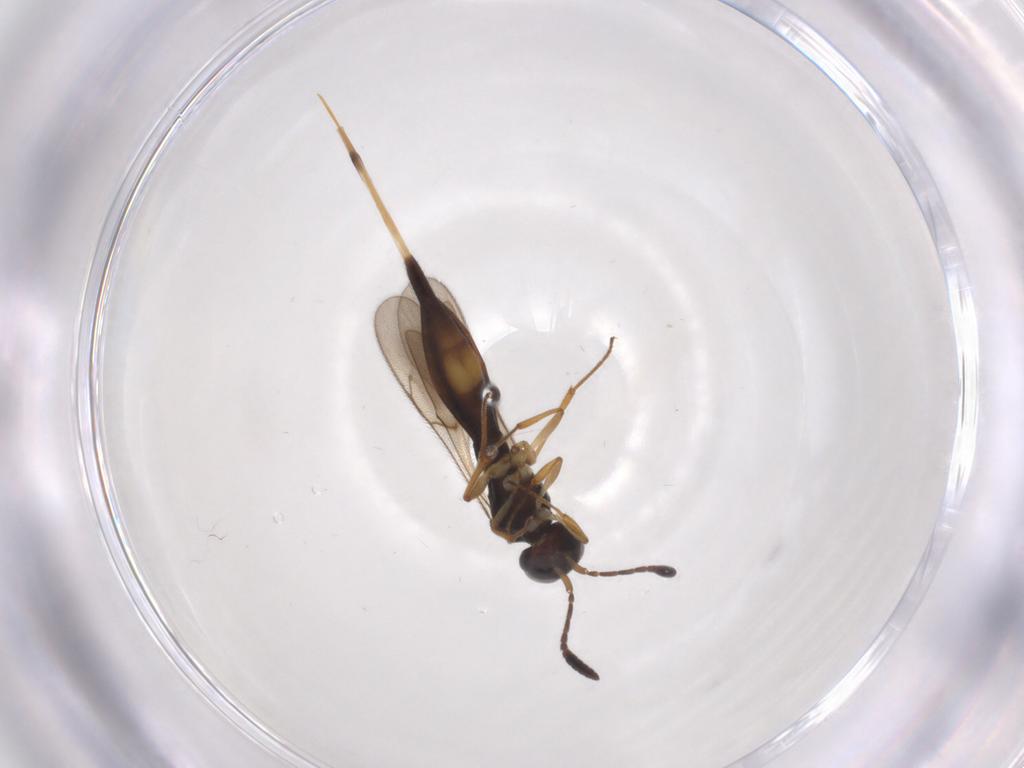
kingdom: Animalia
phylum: Arthropoda
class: Insecta
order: Hymenoptera
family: Scelionidae
